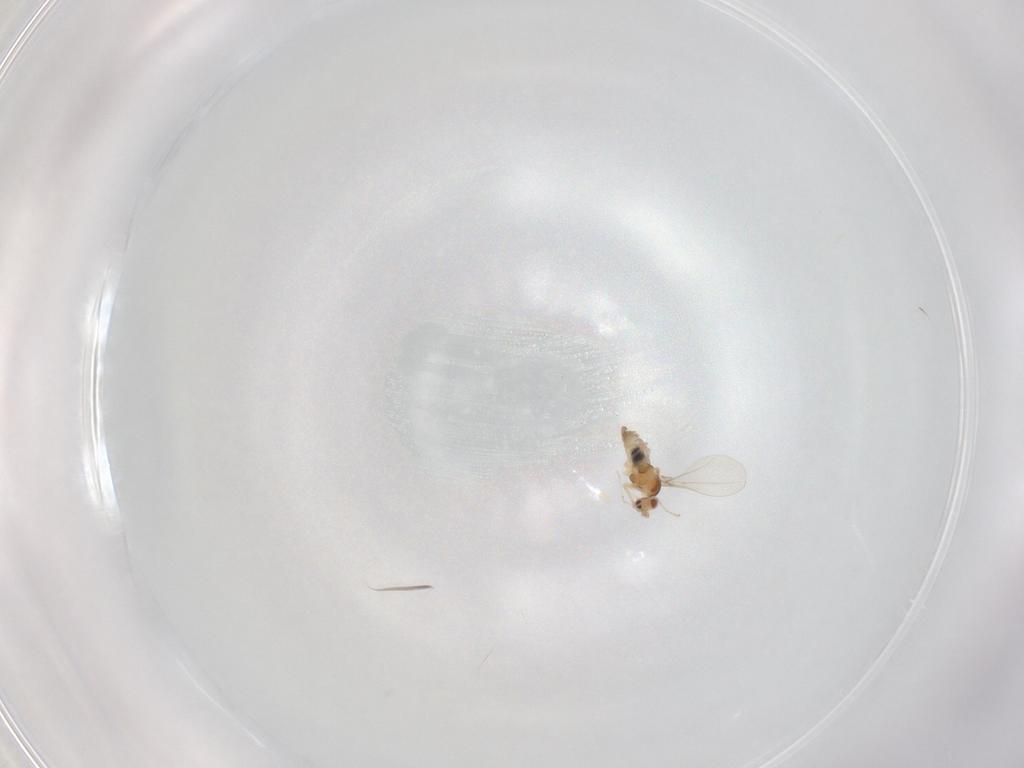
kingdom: Animalia
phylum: Arthropoda
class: Insecta
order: Diptera
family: Cecidomyiidae
